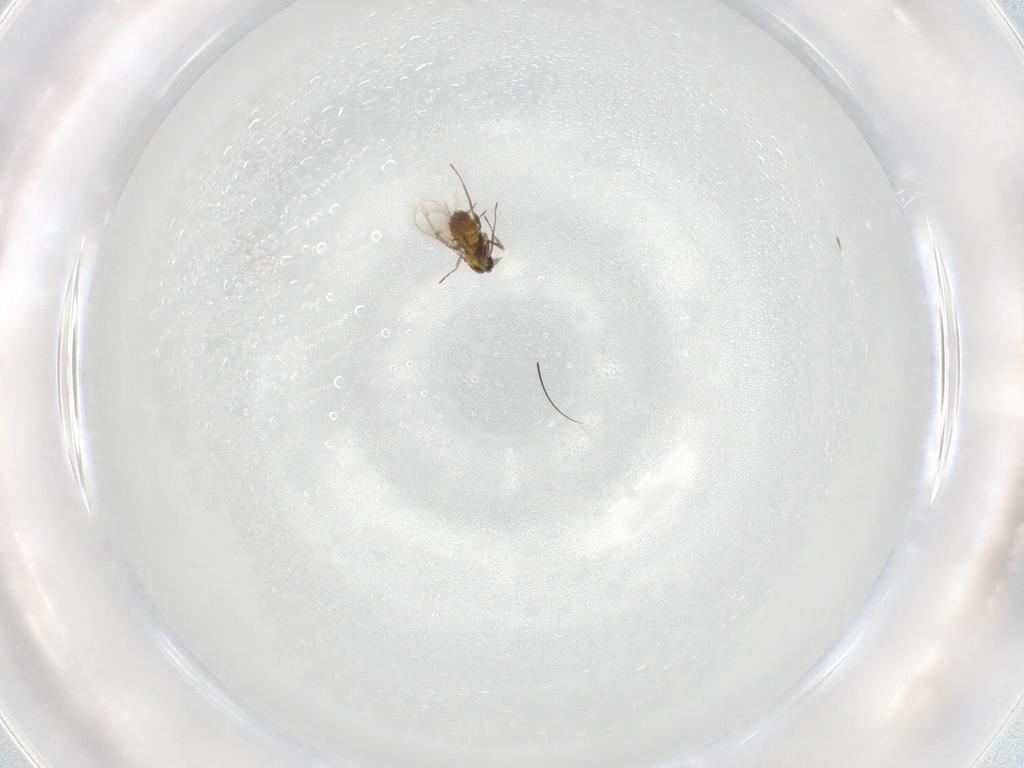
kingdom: Animalia
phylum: Arthropoda
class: Insecta
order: Hymenoptera
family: Trichogrammatidae
